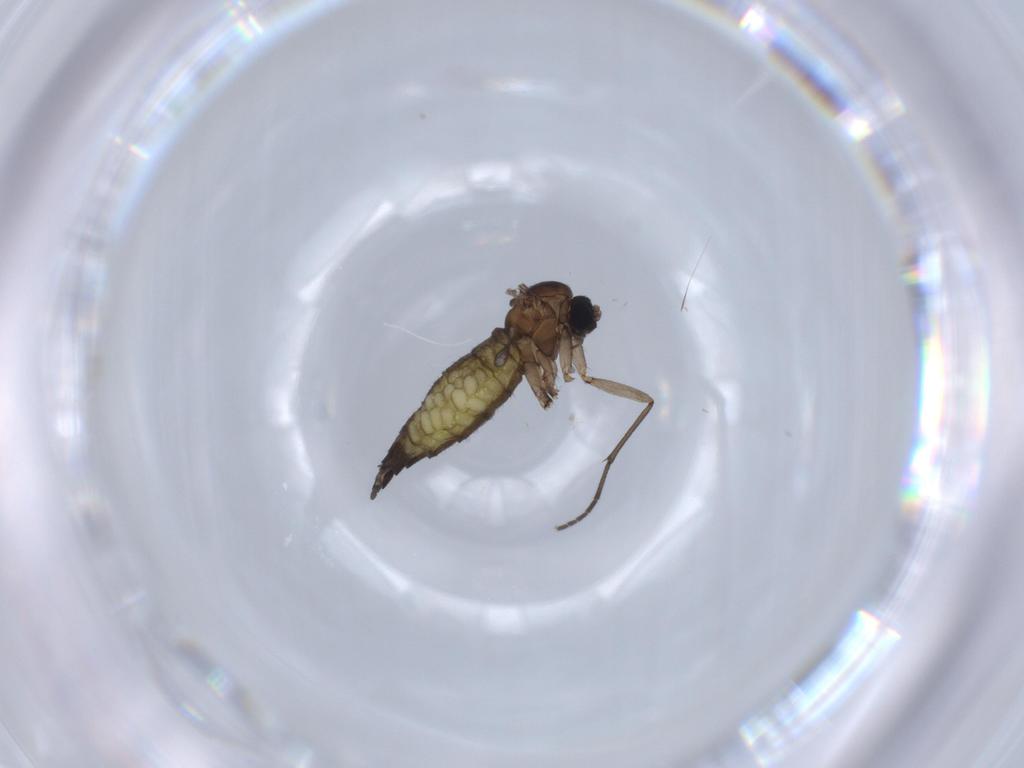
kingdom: Animalia
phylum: Arthropoda
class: Insecta
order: Diptera
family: Sciaridae
